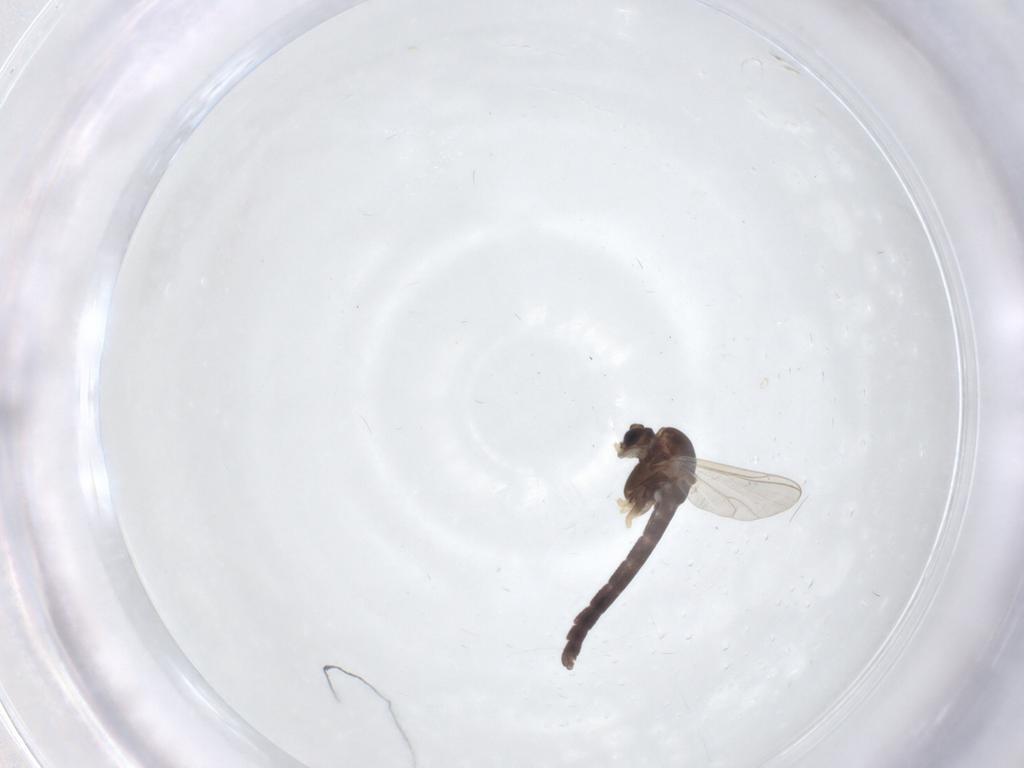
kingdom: Animalia
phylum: Arthropoda
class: Insecta
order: Diptera
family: Chironomidae
